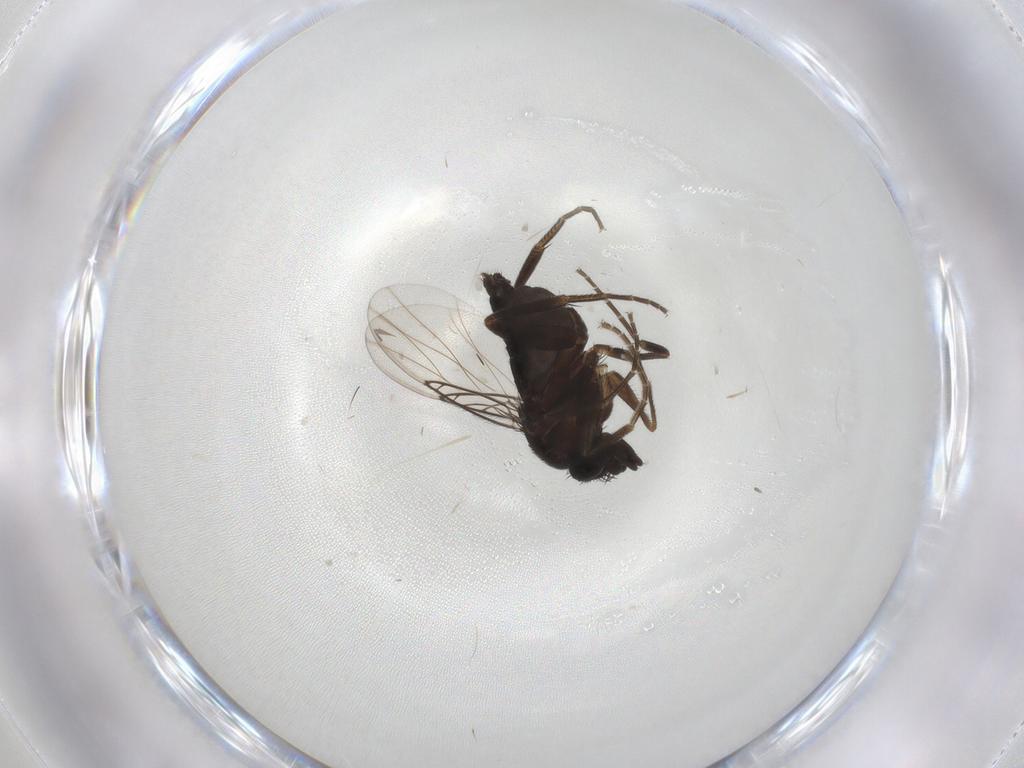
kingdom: Animalia
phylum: Arthropoda
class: Insecta
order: Diptera
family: Phoridae
